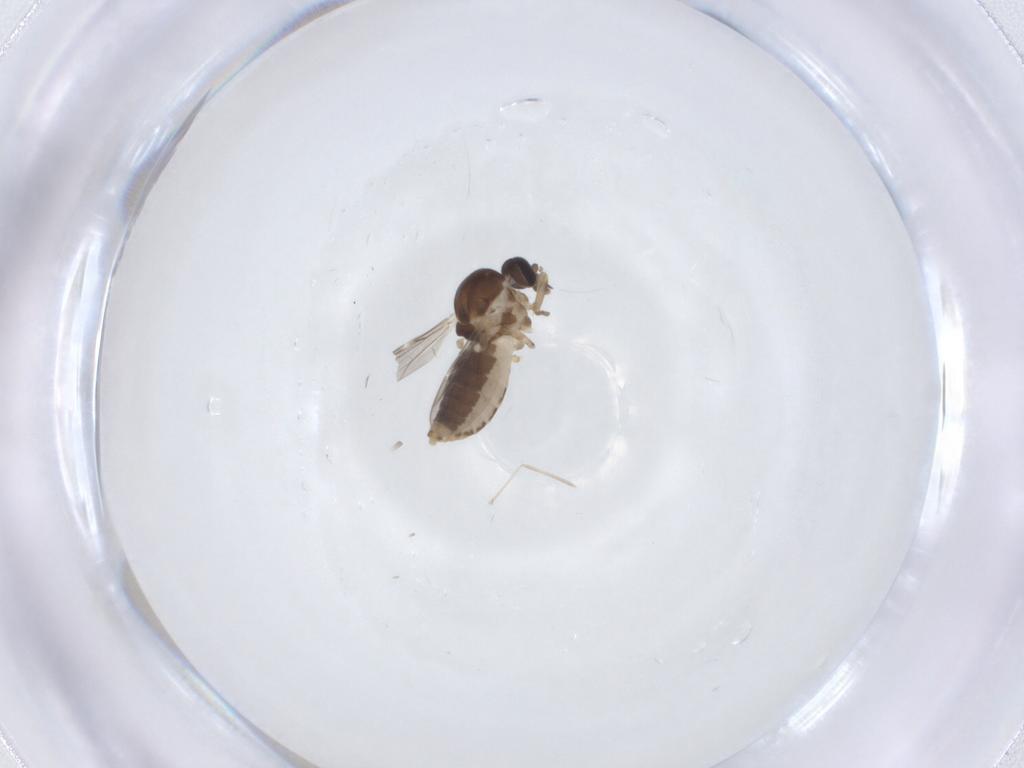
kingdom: Animalia
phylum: Arthropoda
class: Insecta
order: Diptera
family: Ceratopogonidae
